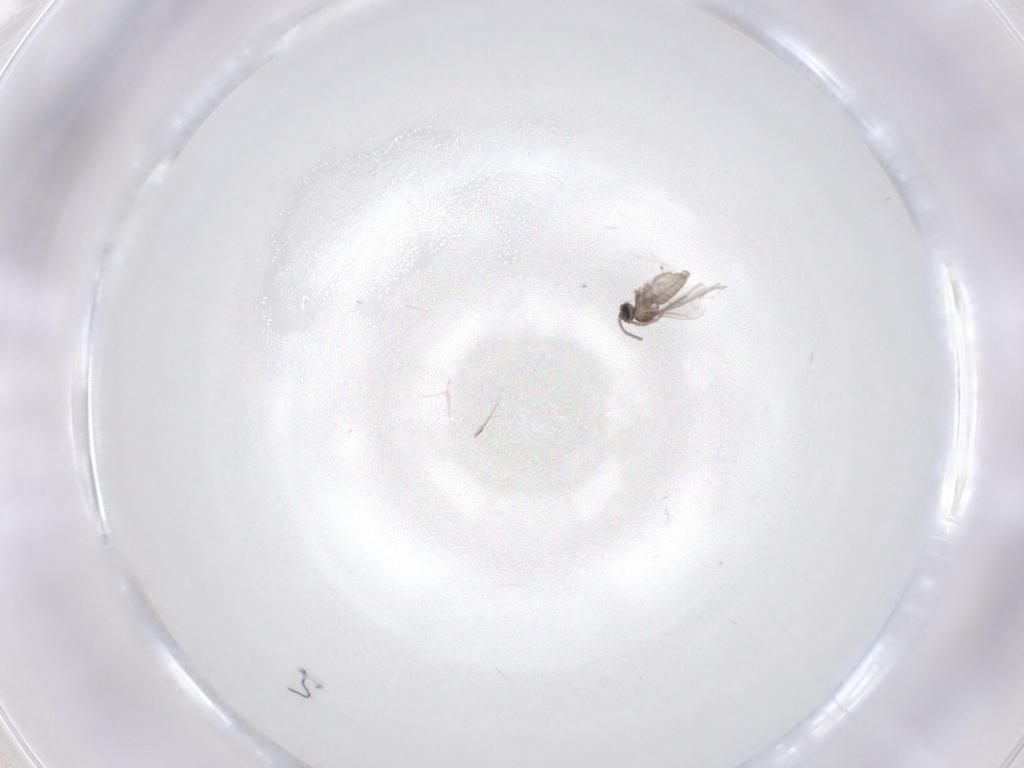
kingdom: Animalia
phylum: Arthropoda
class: Insecta
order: Diptera
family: Cecidomyiidae
